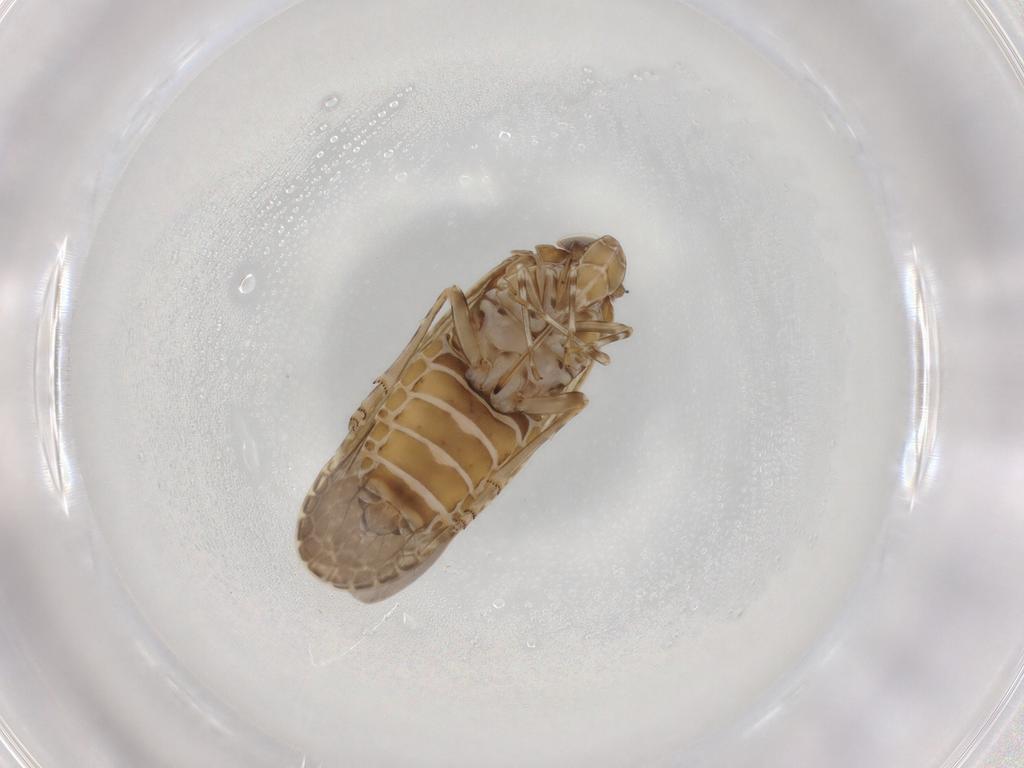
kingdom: Animalia
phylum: Arthropoda
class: Insecta
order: Hemiptera
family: Achilidae
